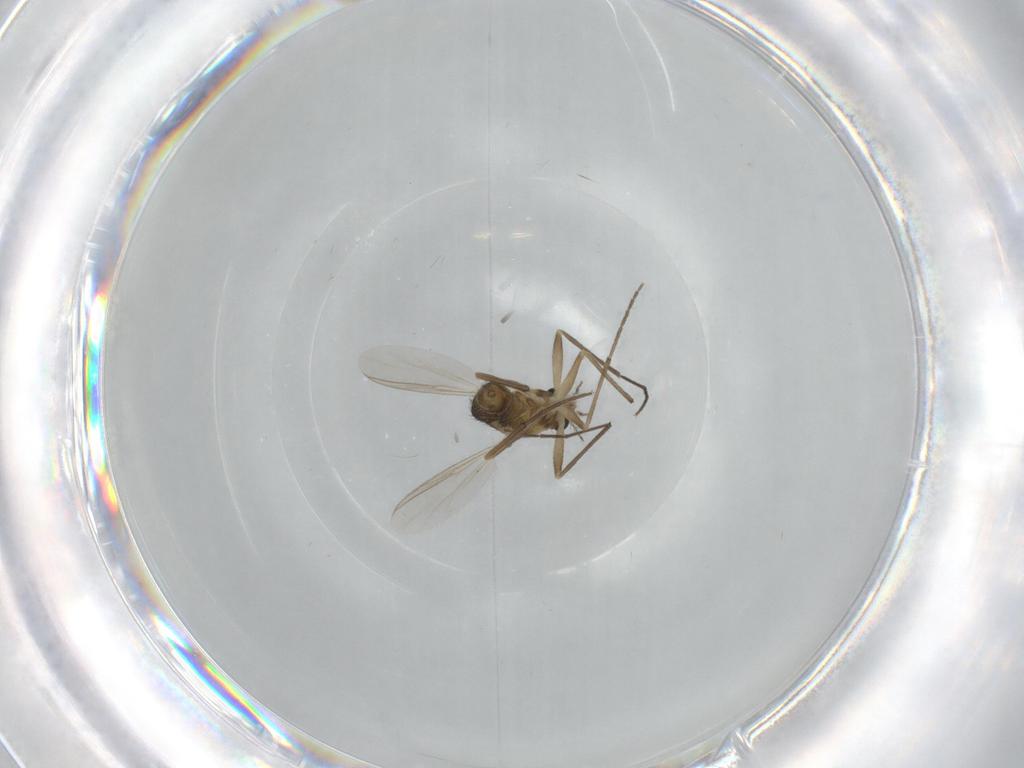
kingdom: Animalia
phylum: Arthropoda
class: Insecta
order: Diptera
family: Chironomidae
